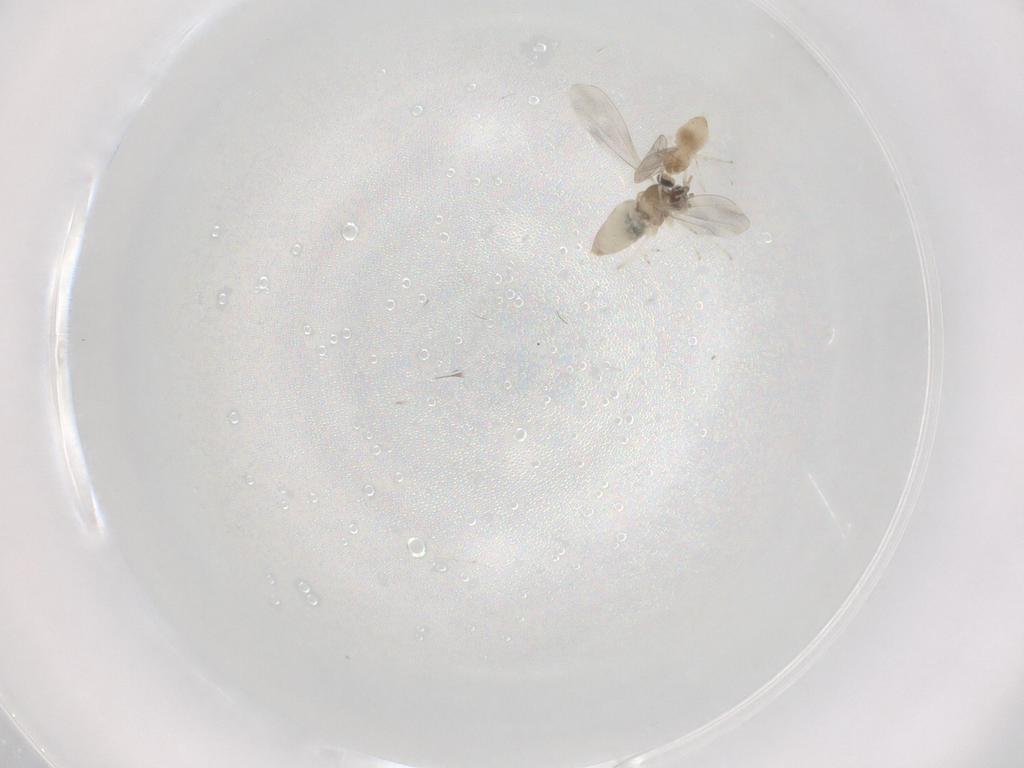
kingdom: Animalia
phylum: Arthropoda
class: Insecta
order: Diptera
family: Cecidomyiidae
